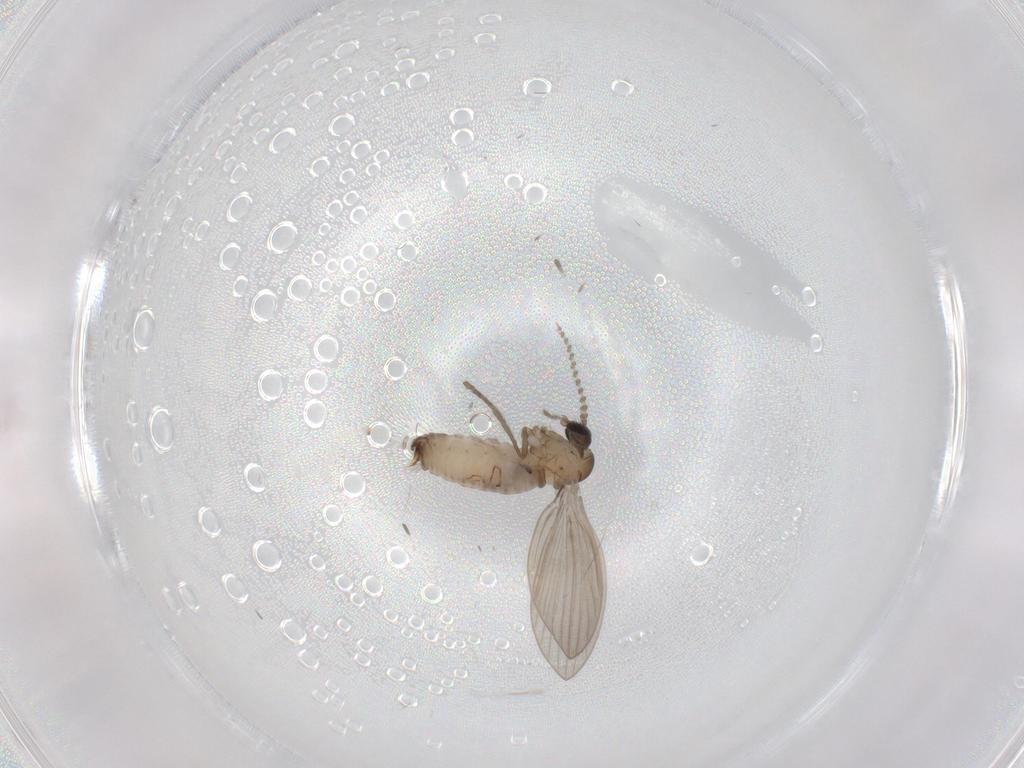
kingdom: Animalia
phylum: Arthropoda
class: Insecta
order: Diptera
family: Psychodidae
